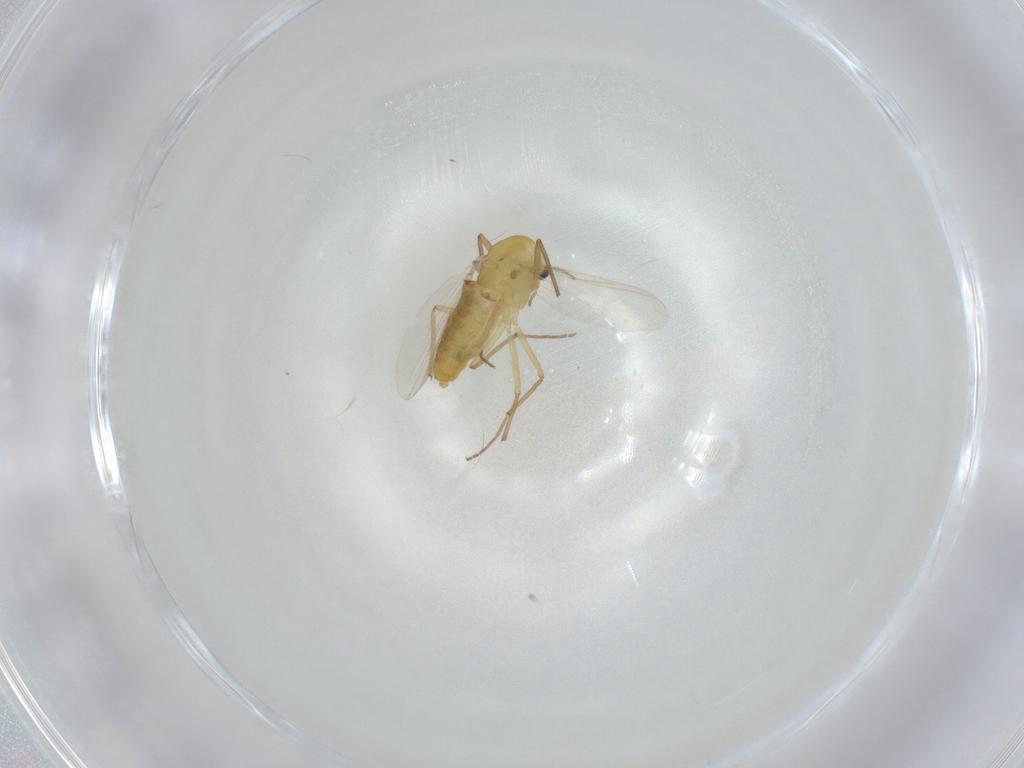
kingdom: Animalia
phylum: Arthropoda
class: Insecta
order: Diptera
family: Chironomidae
